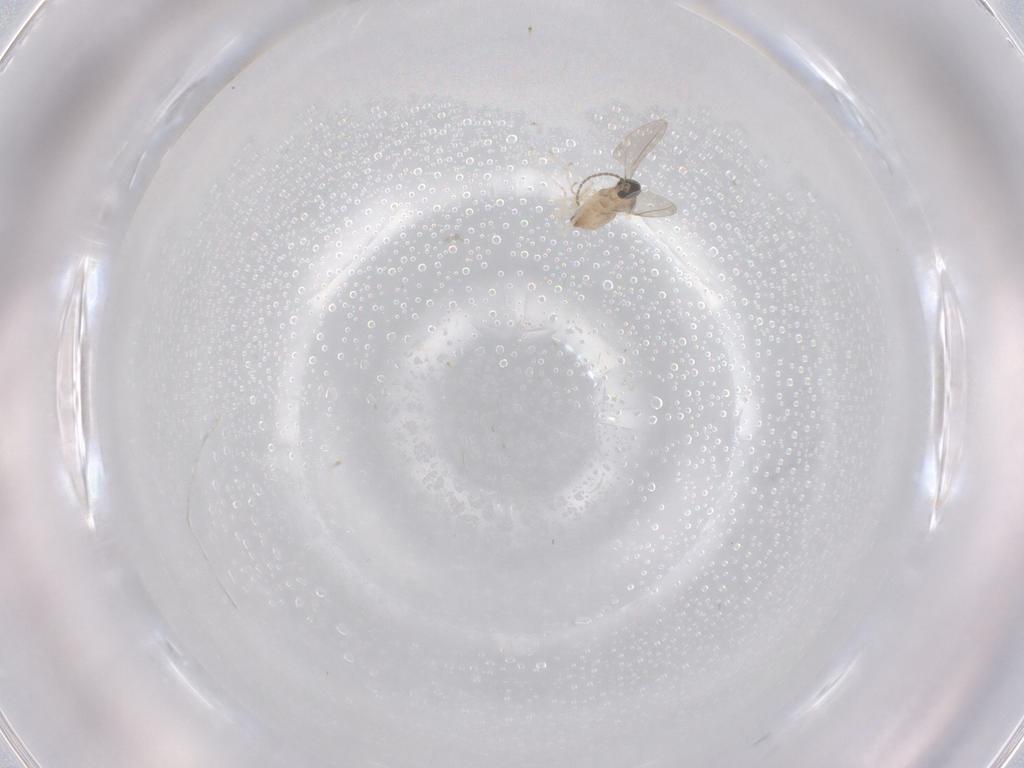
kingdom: Animalia
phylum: Arthropoda
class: Insecta
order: Diptera
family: Cecidomyiidae
